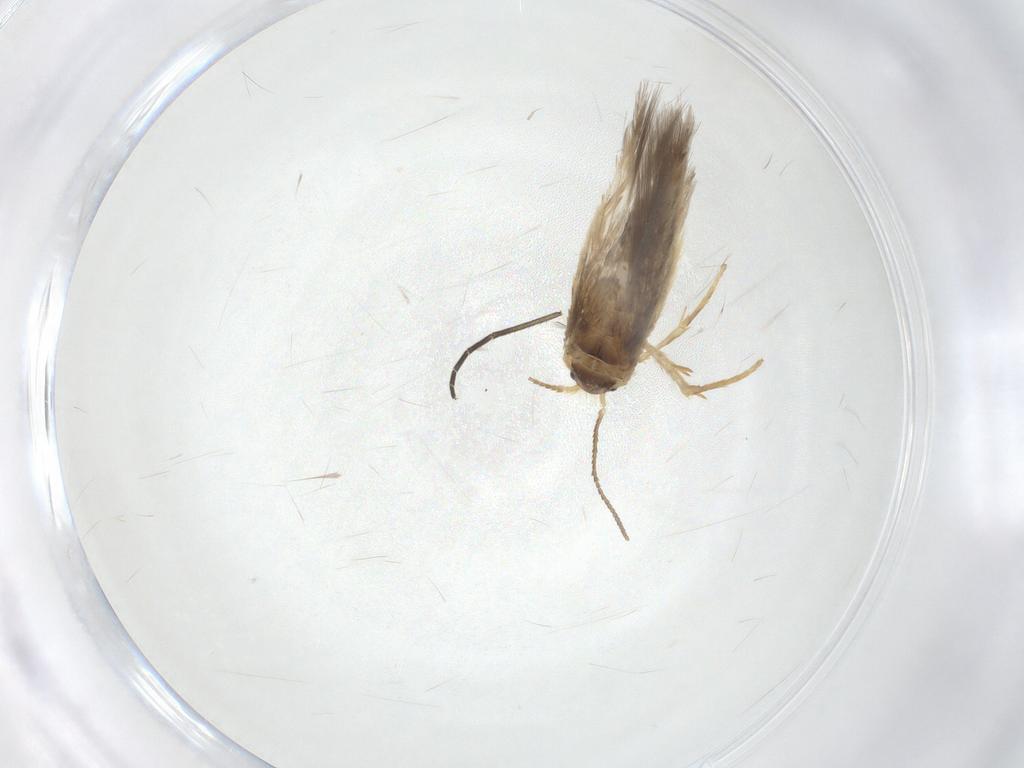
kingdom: Animalia
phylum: Arthropoda
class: Insecta
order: Lepidoptera
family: Nepticulidae
